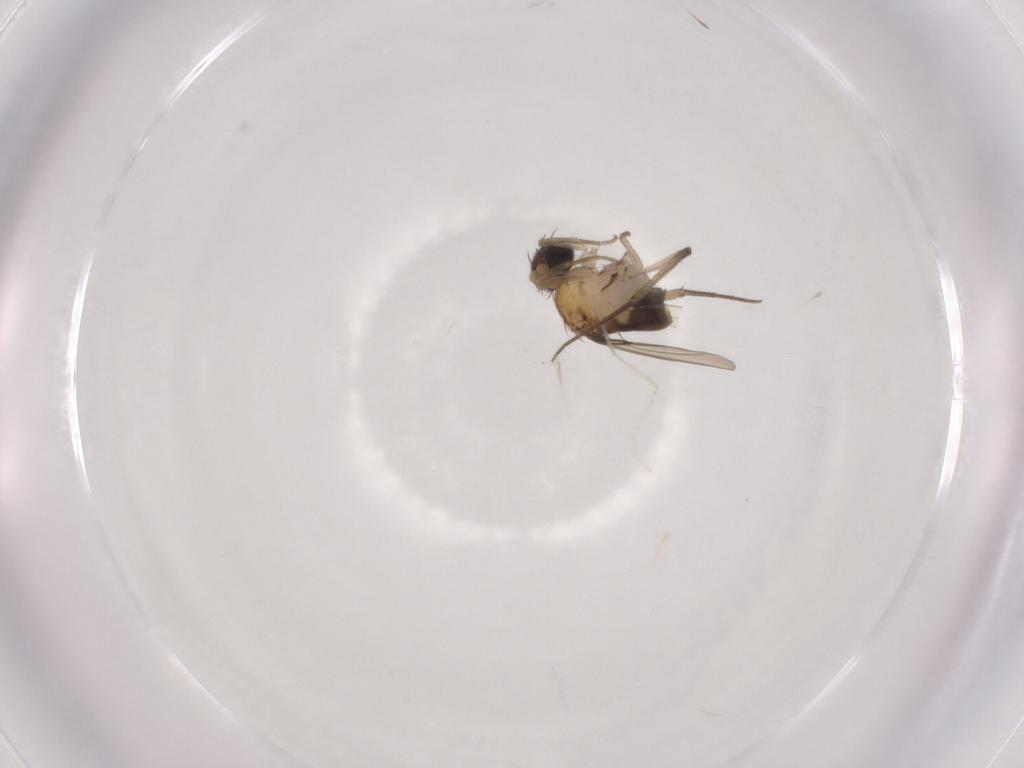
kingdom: Animalia
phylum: Arthropoda
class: Insecta
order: Diptera
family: Phoridae
